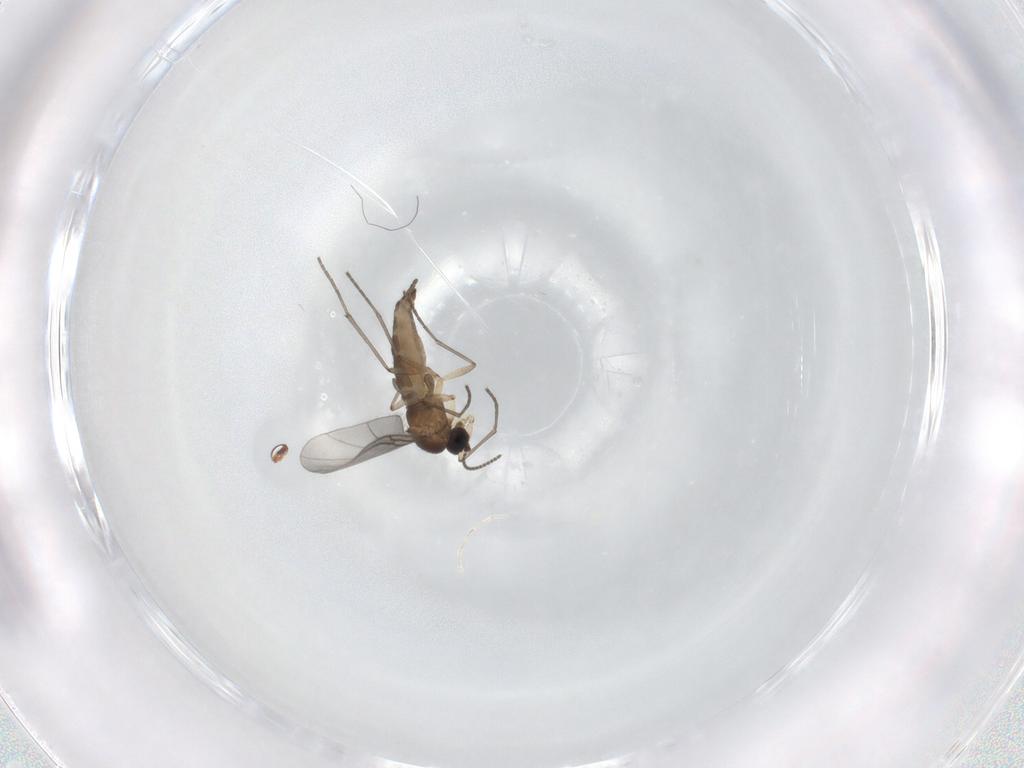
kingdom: Animalia
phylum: Arthropoda
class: Insecta
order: Diptera
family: Sciaridae
